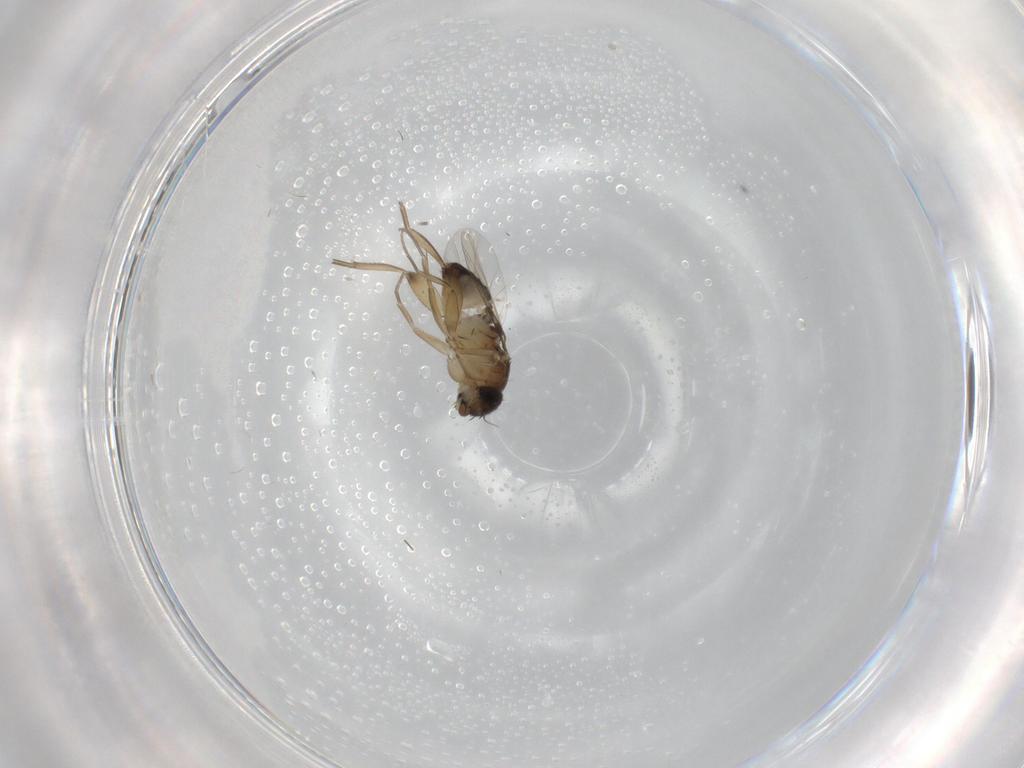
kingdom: Animalia
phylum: Arthropoda
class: Insecta
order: Diptera
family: Phoridae
